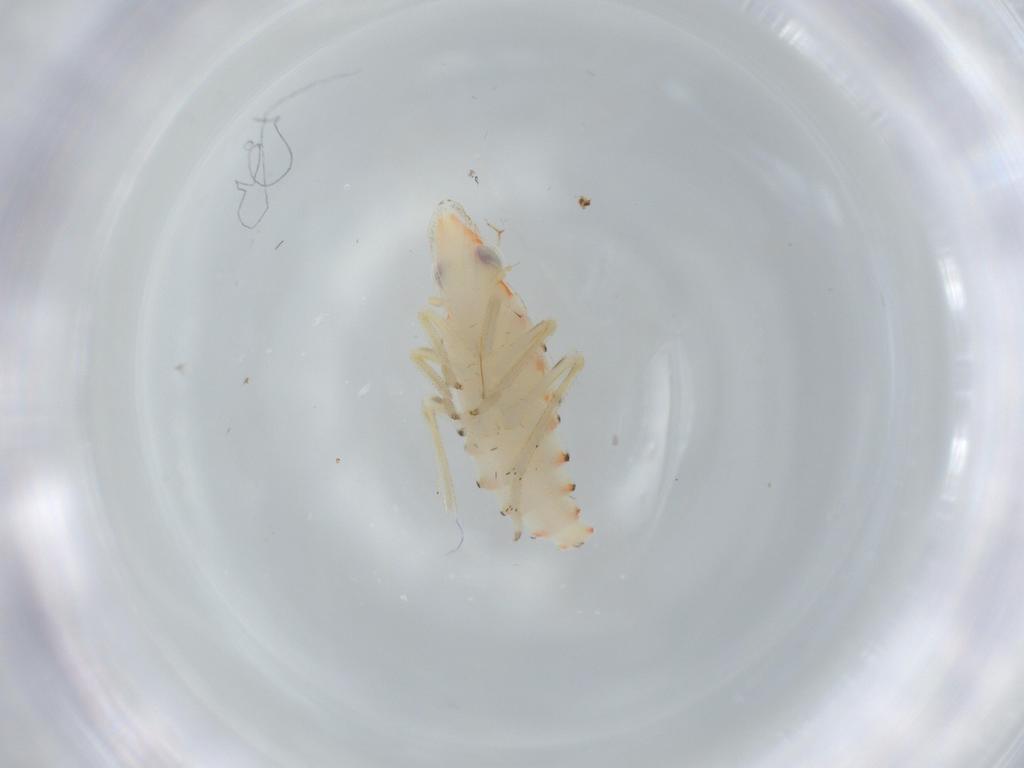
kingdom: Animalia
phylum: Arthropoda
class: Insecta
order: Hemiptera
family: Tropiduchidae
